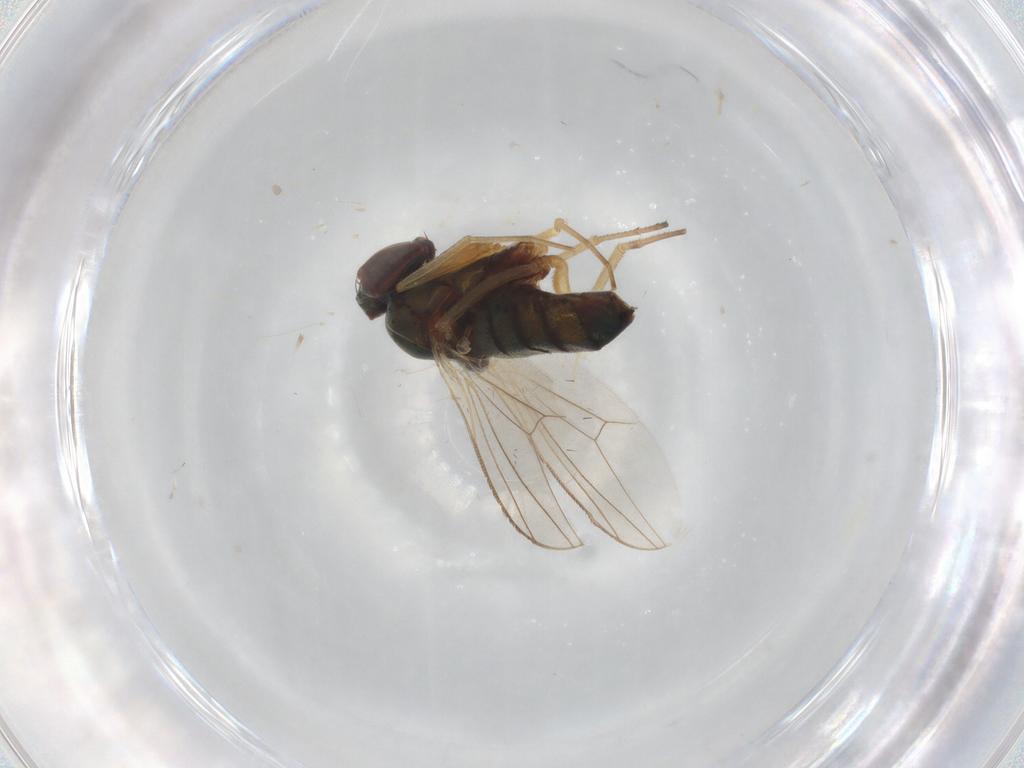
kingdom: Animalia
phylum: Arthropoda
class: Insecta
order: Diptera
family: Dolichopodidae
